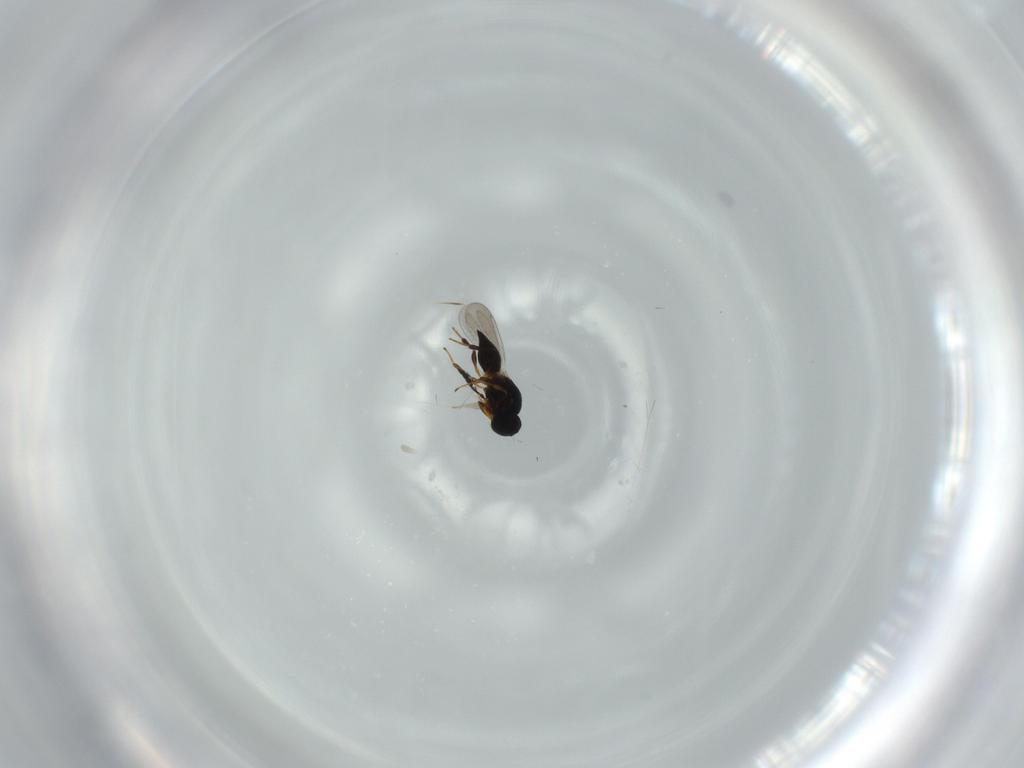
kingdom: Animalia
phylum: Arthropoda
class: Insecta
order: Hymenoptera
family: Platygastridae
